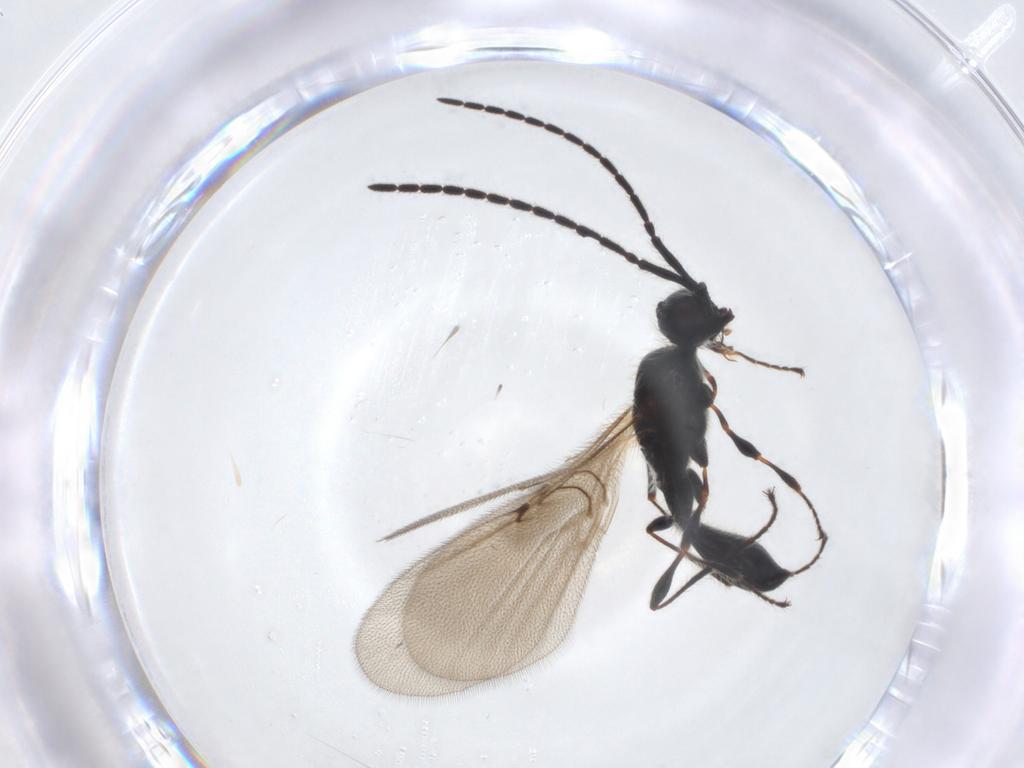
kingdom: Animalia
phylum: Arthropoda
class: Insecta
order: Hymenoptera
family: Diapriidae
